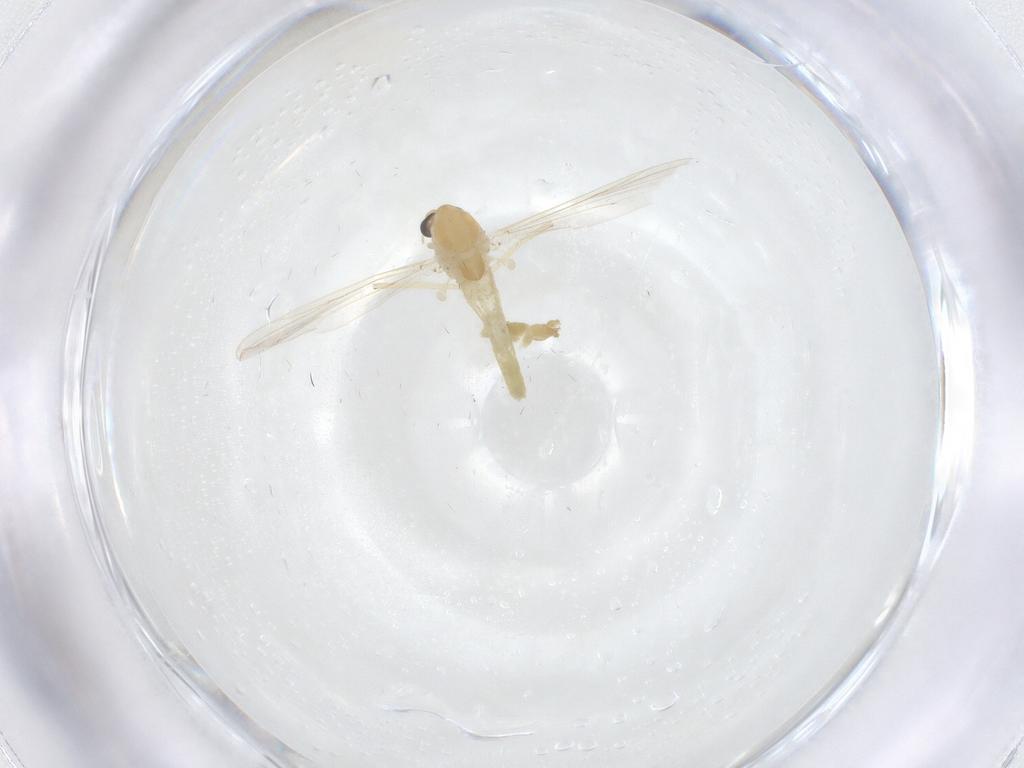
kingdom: Animalia
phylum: Arthropoda
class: Insecta
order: Diptera
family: Chironomidae
